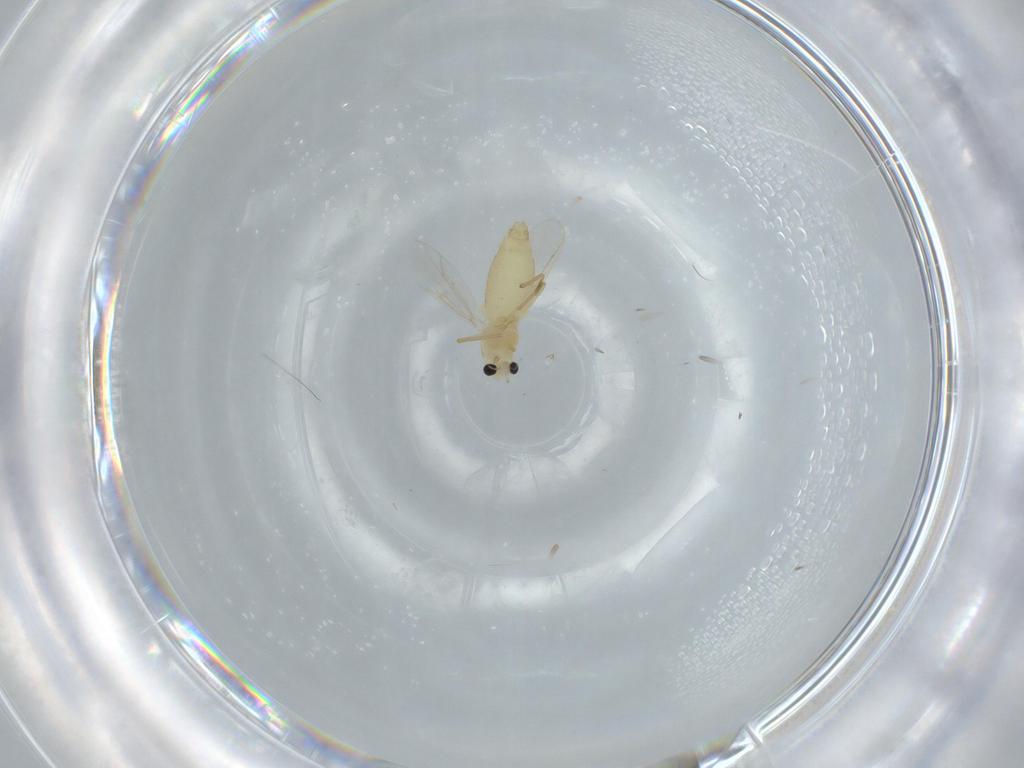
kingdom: Animalia
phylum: Arthropoda
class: Insecta
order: Diptera
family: Chironomidae
